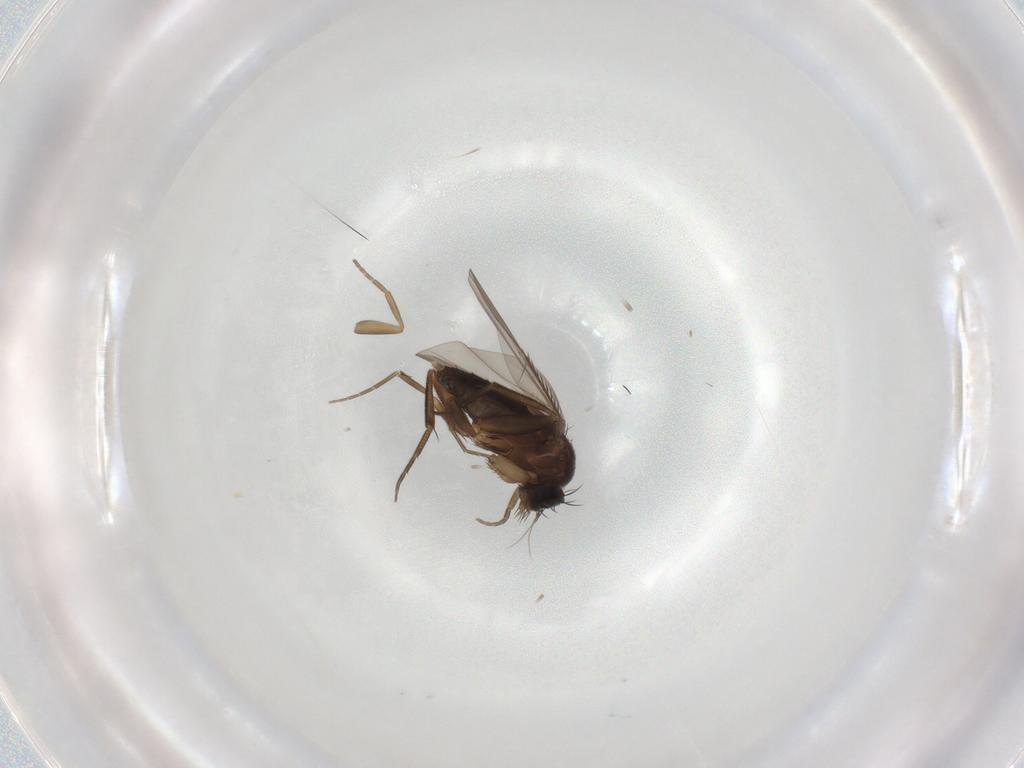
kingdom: Animalia
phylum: Arthropoda
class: Insecta
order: Diptera
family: Phoridae
